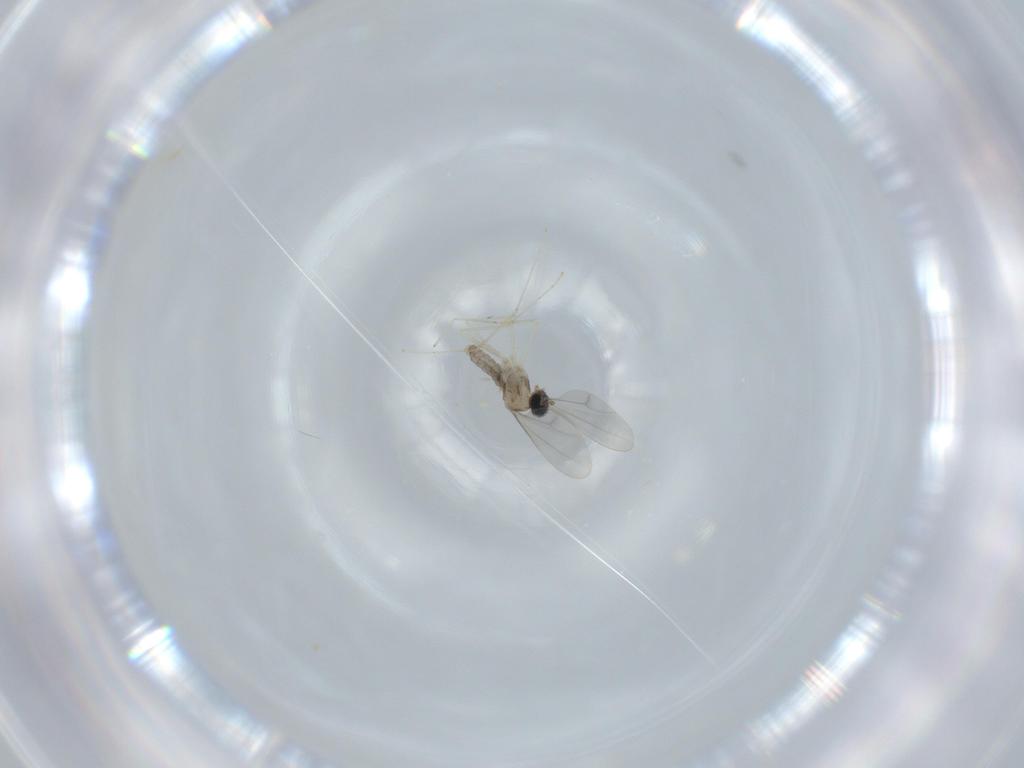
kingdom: Animalia
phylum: Arthropoda
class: Insecta
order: Diptera
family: Cecidomyiidae
